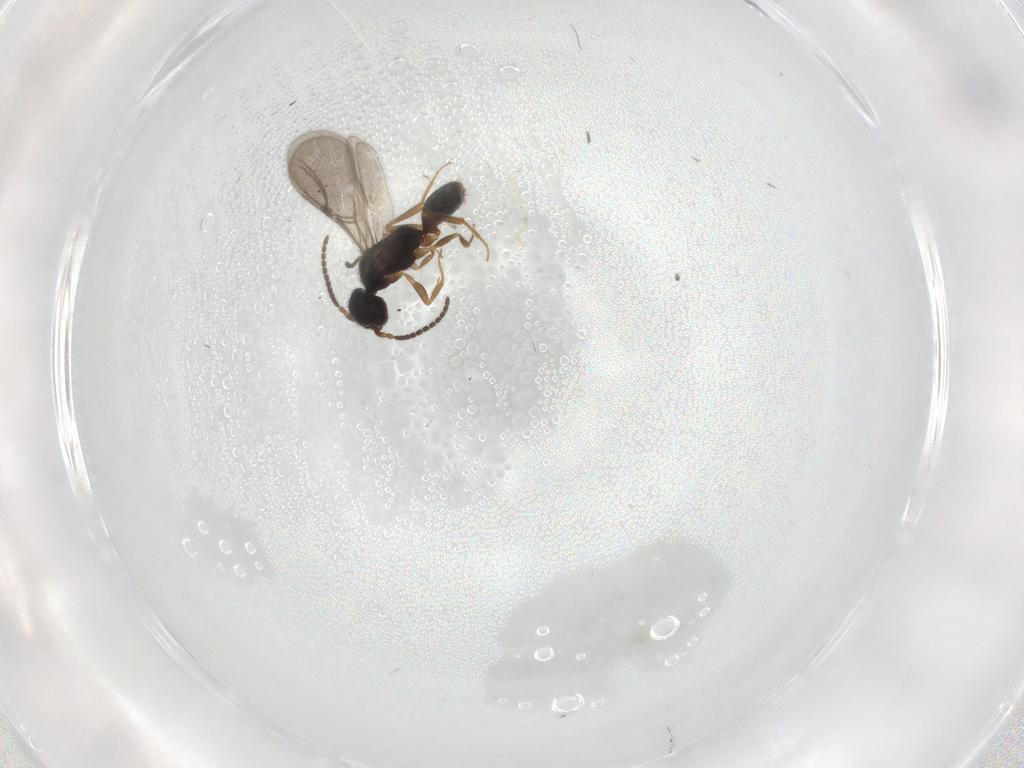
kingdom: Animalia
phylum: Arthropoda
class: Insecta
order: Hymenoptera
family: Bethylidae
